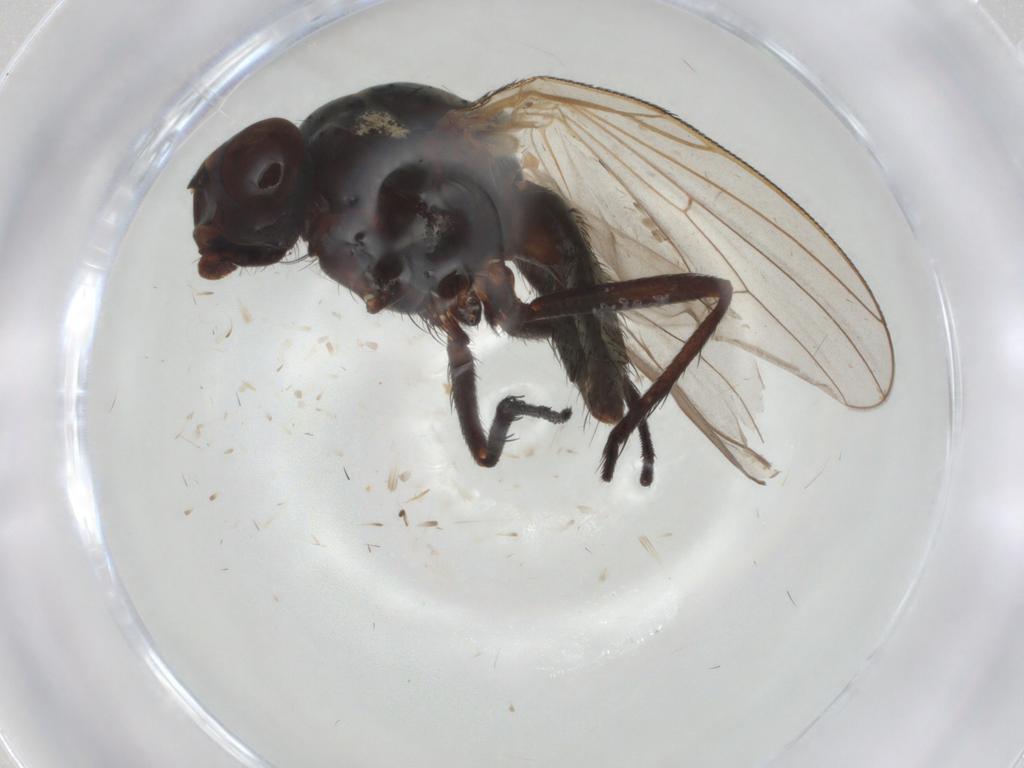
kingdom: Animalia
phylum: Arthropoda
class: Insecta
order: Diptera
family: Anthomyiidae
